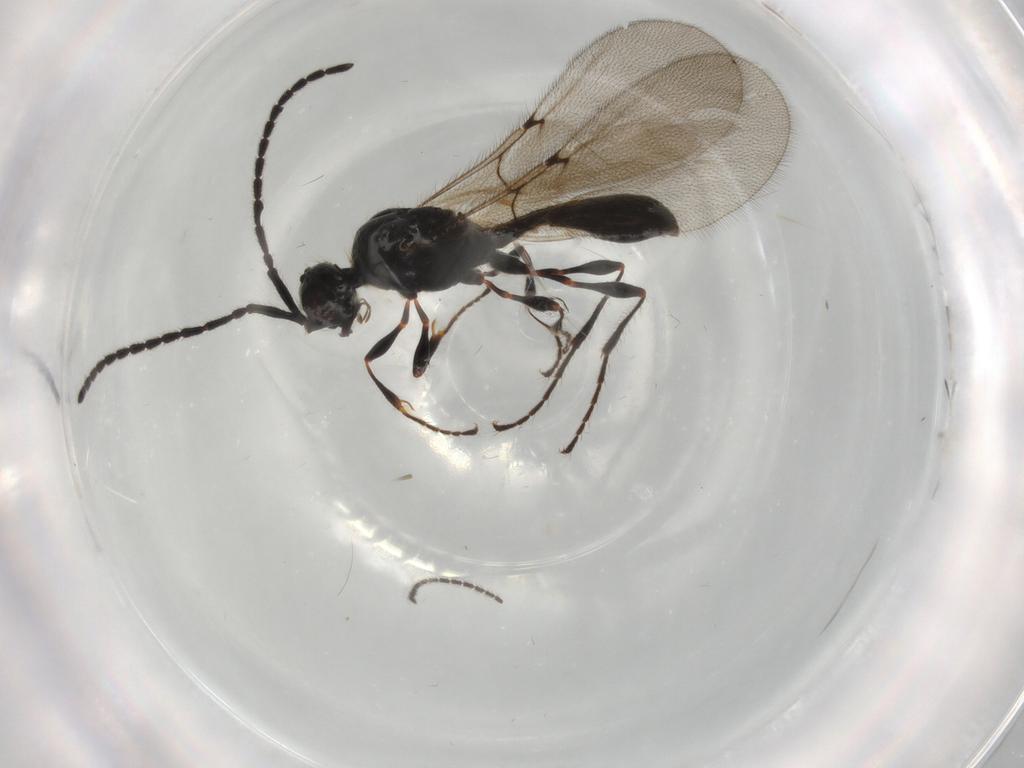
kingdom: Animalia
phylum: Arthropoda
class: Insecta
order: Hymenoptera
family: Diapriidae
